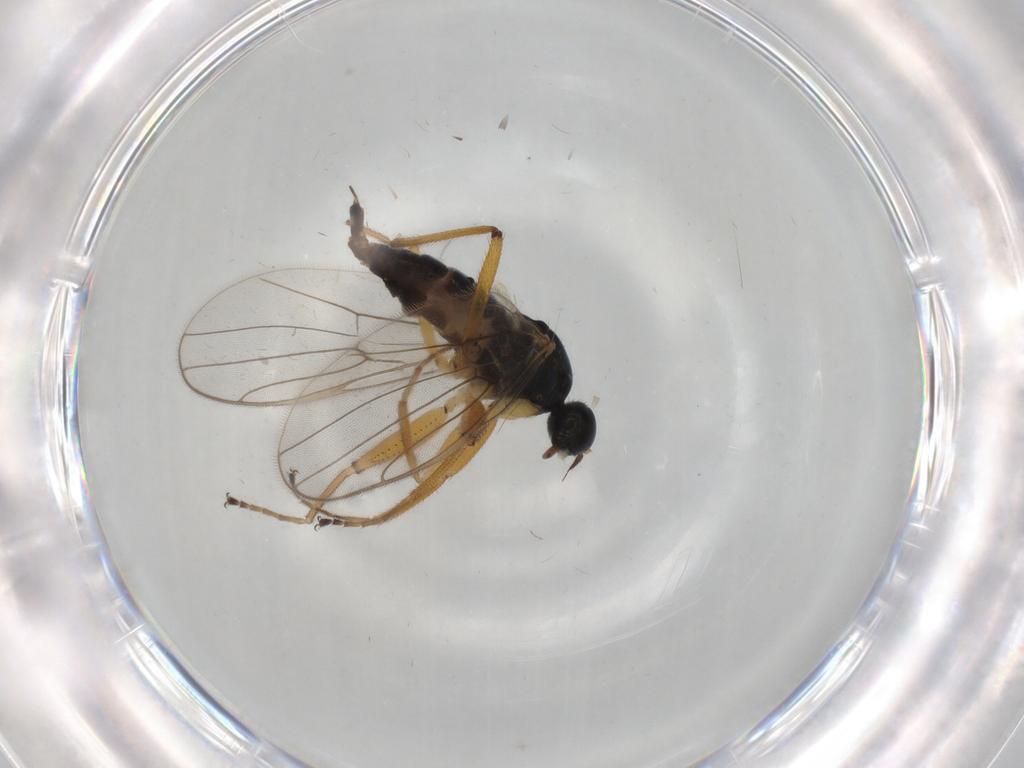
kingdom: Animalia
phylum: Arthropoda
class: Insecta
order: Diptera
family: Hybotidae
